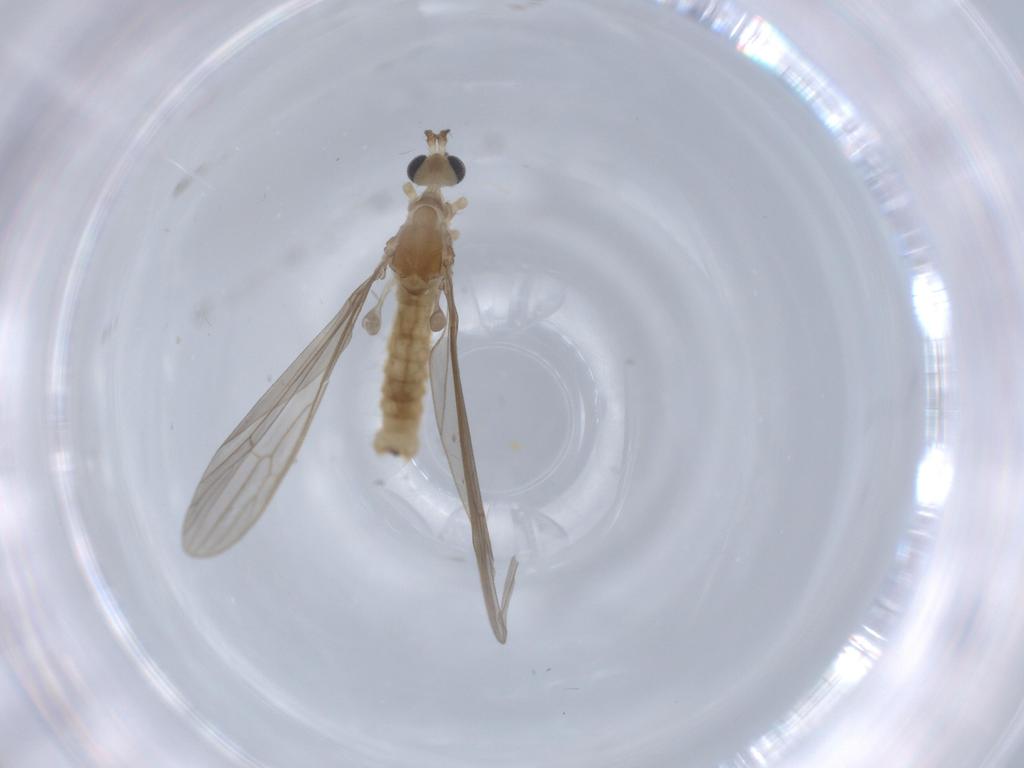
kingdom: Animalia
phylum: Arthropoda
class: Insecta
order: Diptera
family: Limoniidae
